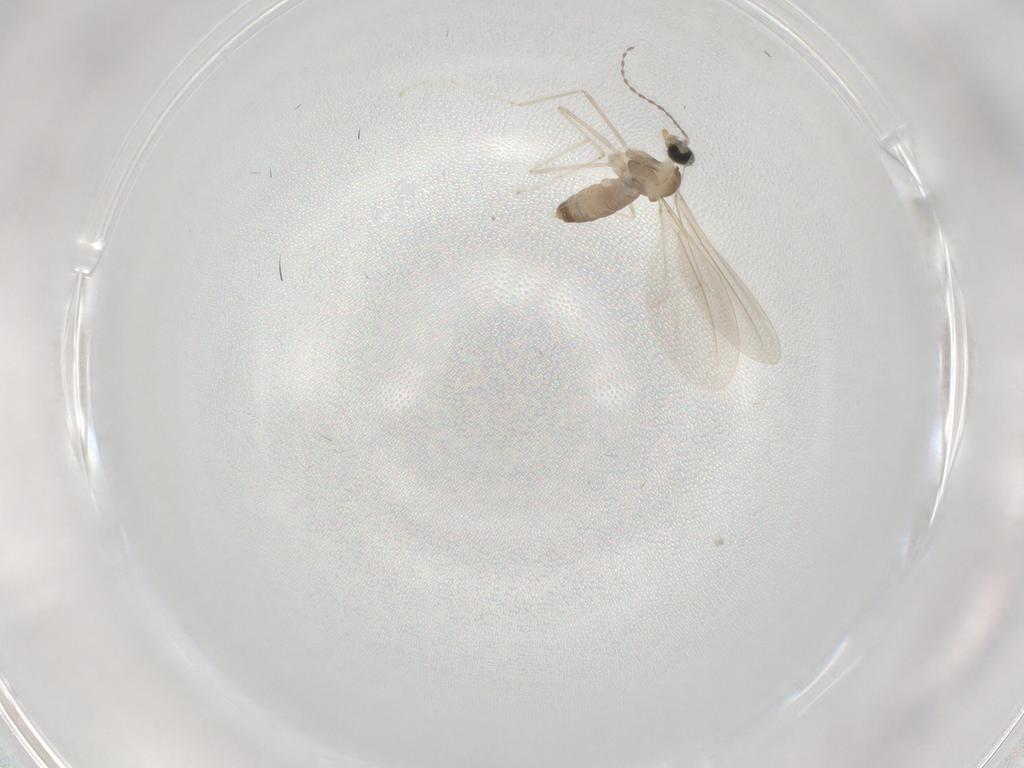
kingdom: Animalia
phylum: Arthropoda
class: Insecta
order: Diptera
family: Cecidomyiidae
